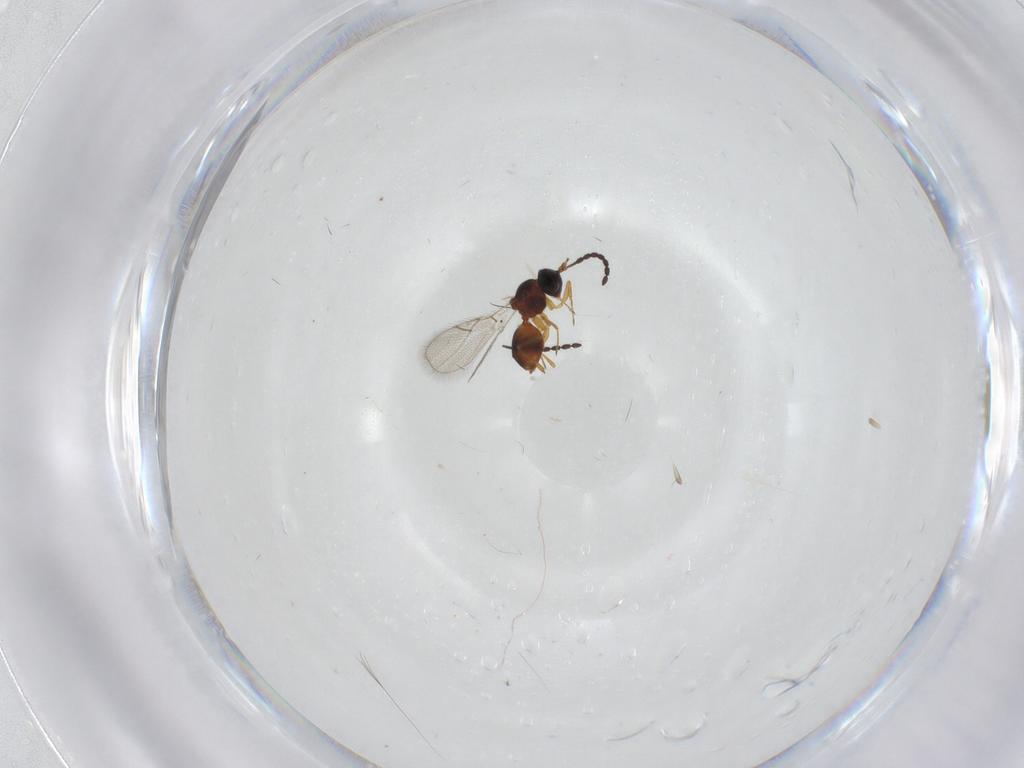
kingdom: Animalia
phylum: Arthropoda
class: Insecta
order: Hymenoptera
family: Figitidae
